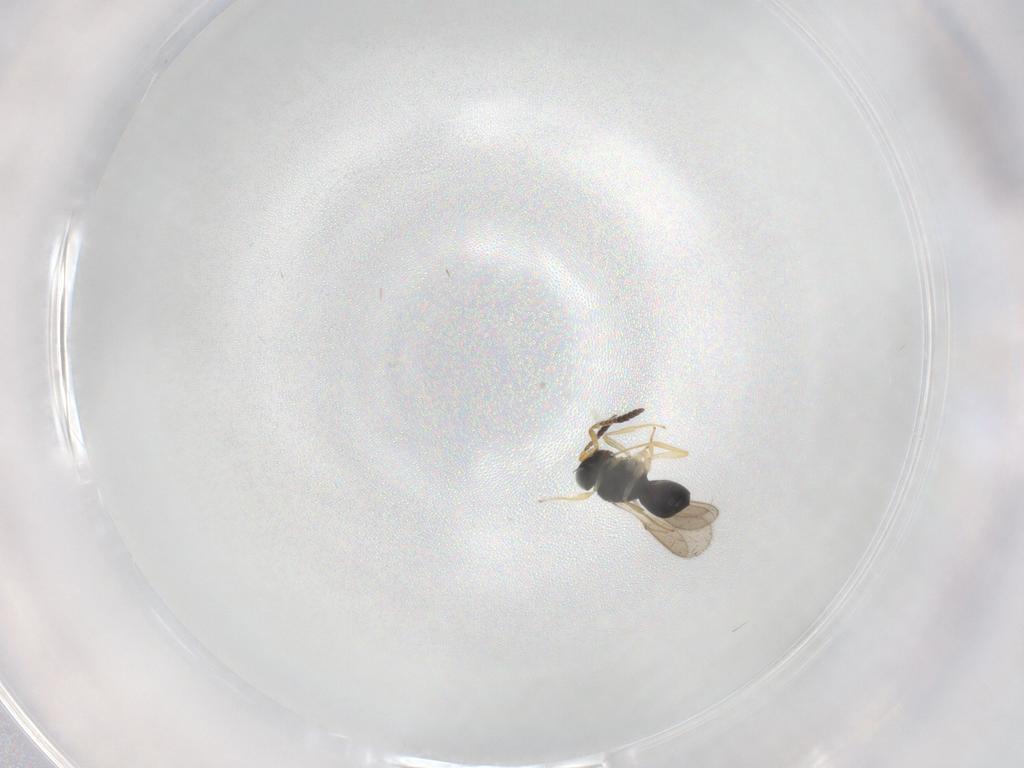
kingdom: Animalia
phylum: Arthropoda
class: Insecta
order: Hymenoptera
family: Scelionidae
